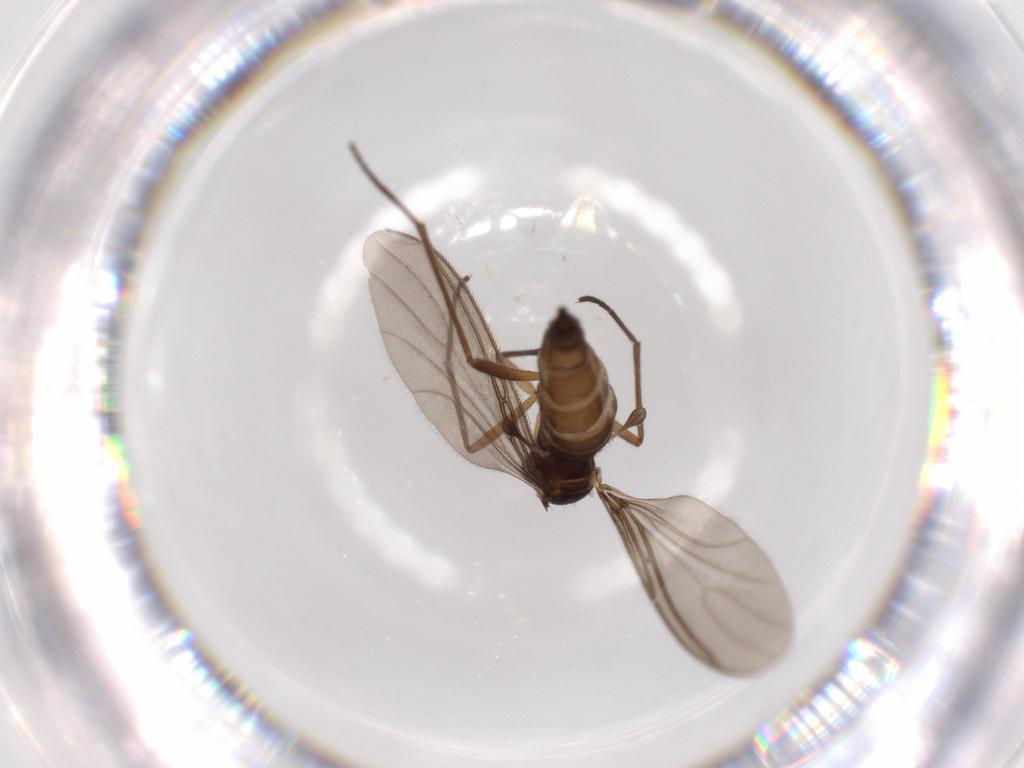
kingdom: Animalia
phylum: Arthropoda
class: Insecta
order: Diptera
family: Sciaridae
